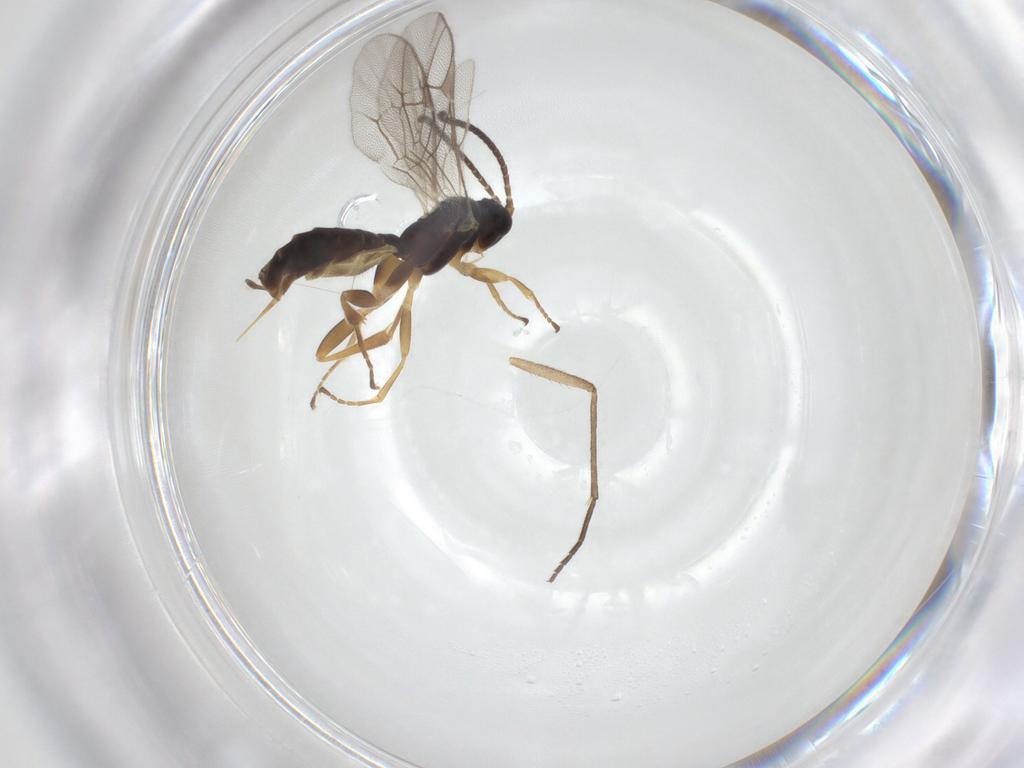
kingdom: Animalia
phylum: Arthropoda
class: Insecta
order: Hymenoptera
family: Ichneumonidae
